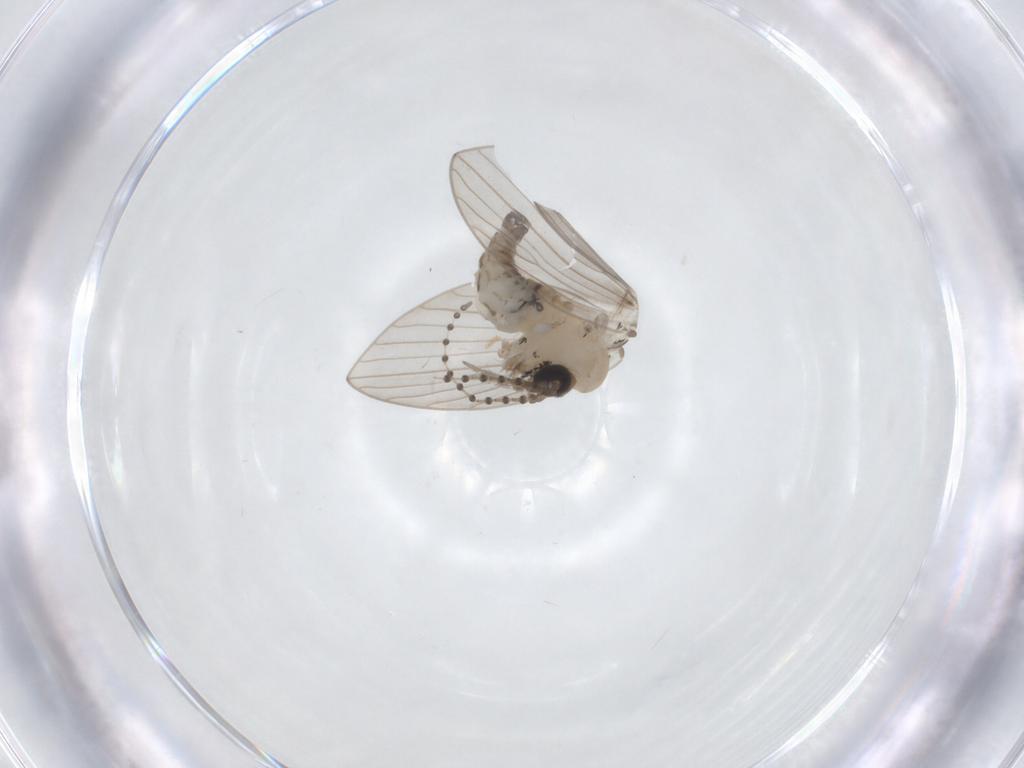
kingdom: Animalia
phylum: Arthropoda
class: Insecta
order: Diptera
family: Psychodidae
